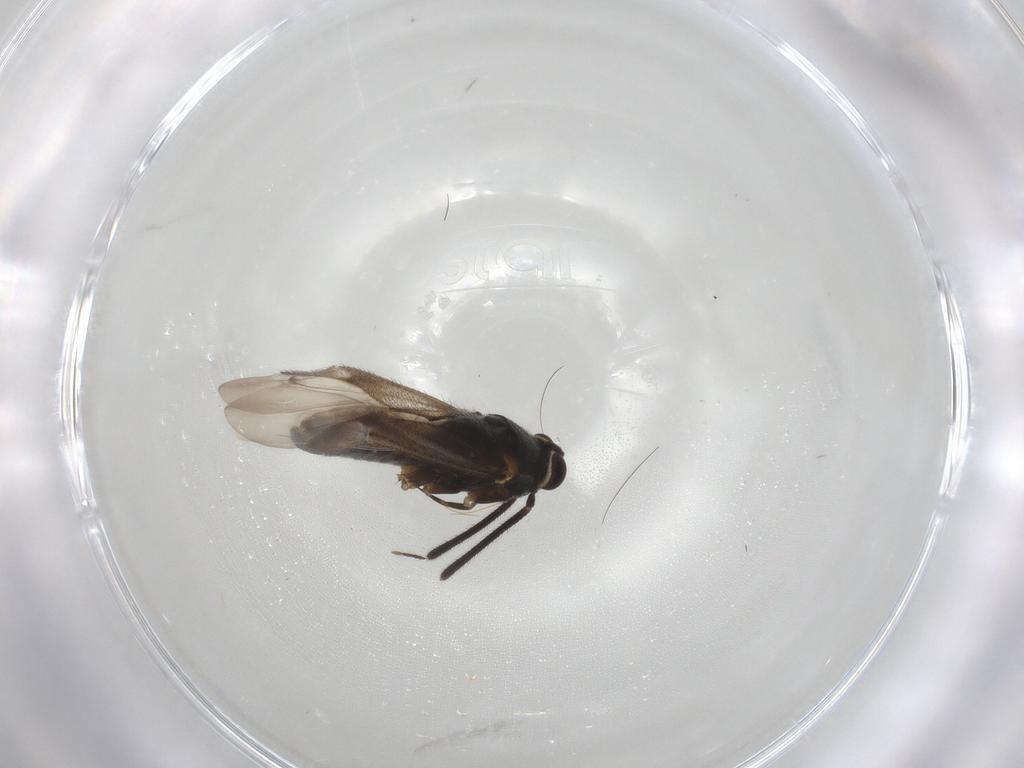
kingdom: Animalia
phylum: Arthropoda
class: Insecta
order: Hemiptera
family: Miridae
